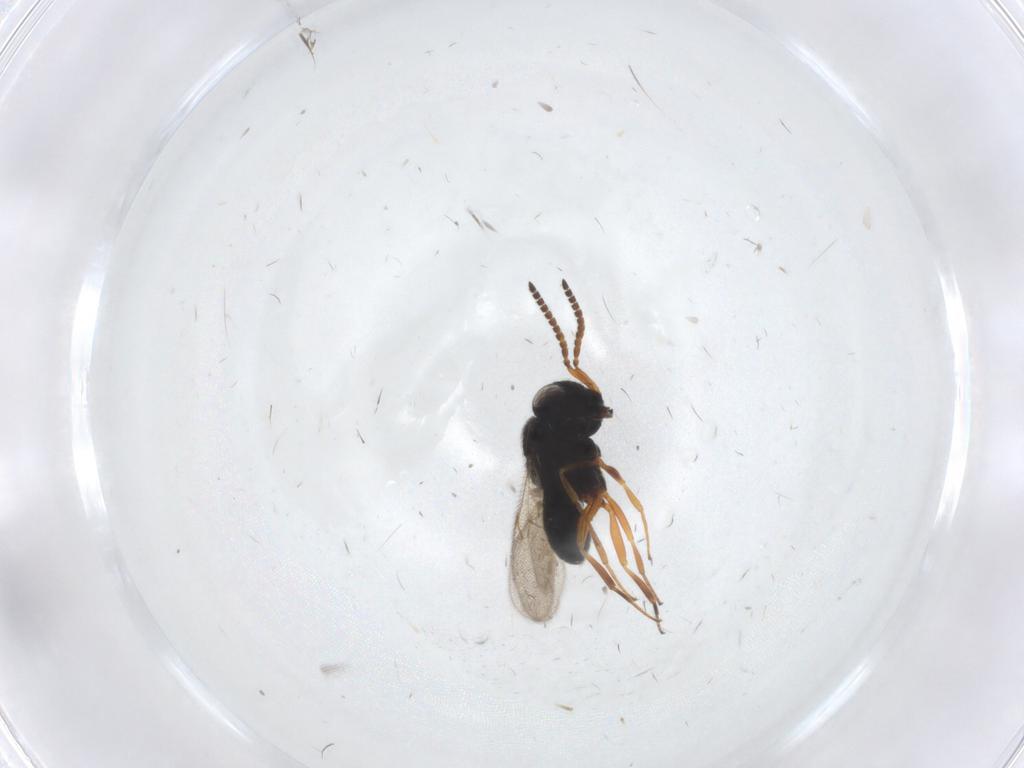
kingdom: Animalia
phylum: Arthropoda
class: Insecta
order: Hymenoptera
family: Scelionidae
